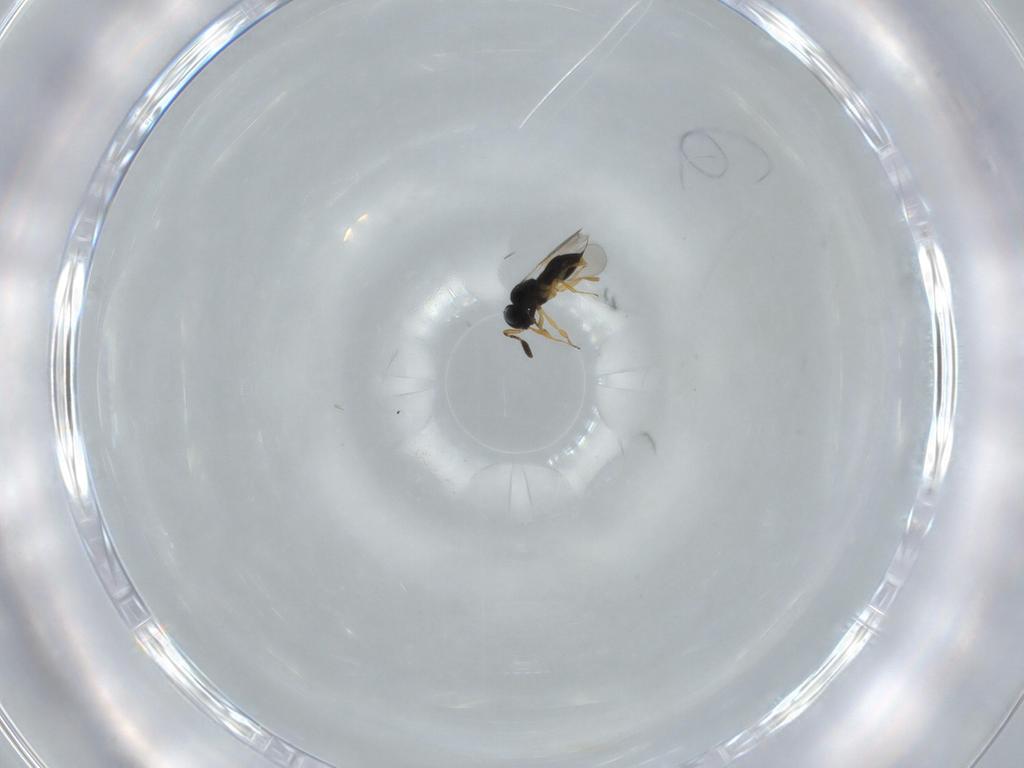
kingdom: Animalia
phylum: Arthropoda
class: Insecta
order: Hymenoptera
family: Scelionidae
